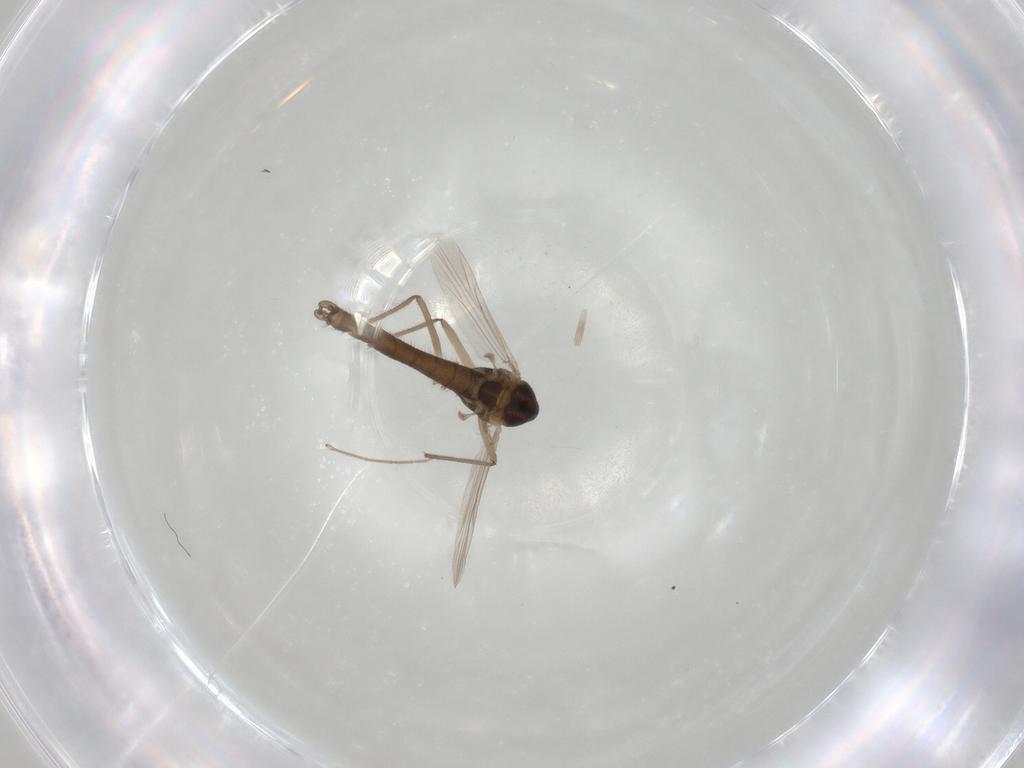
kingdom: Animalia
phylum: Arthropoda
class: Insecta
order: Diptera
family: Chironomidae
